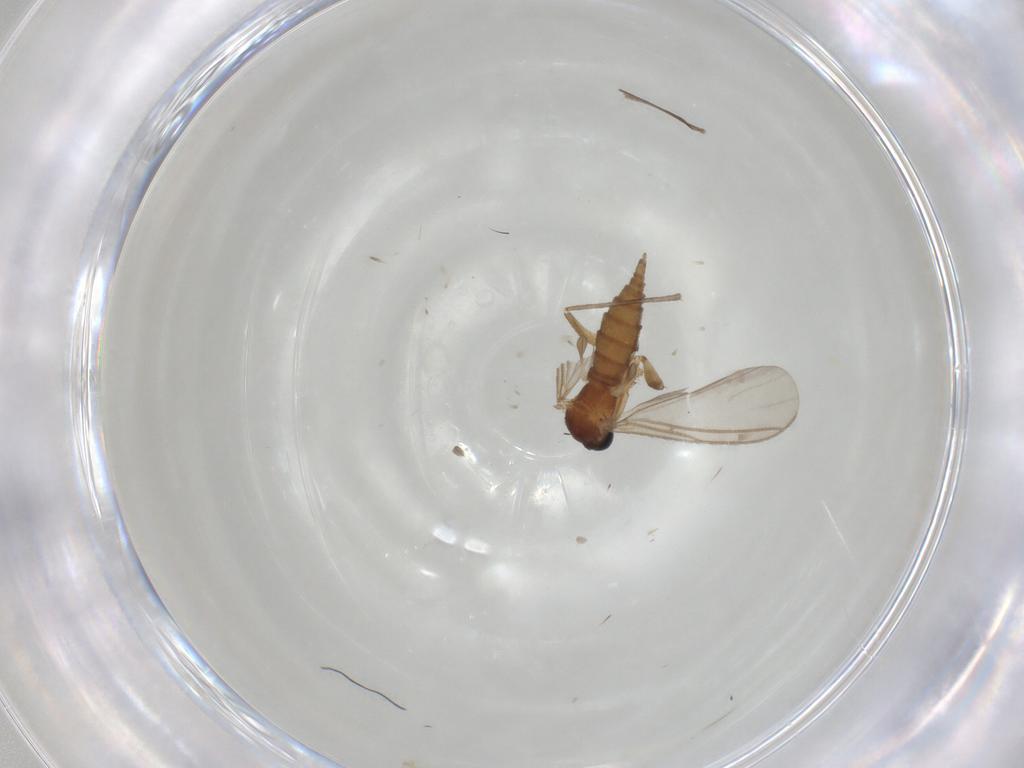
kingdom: Animalia
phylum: Arthropoda
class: Insecta
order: Diptera
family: Sciaridae
